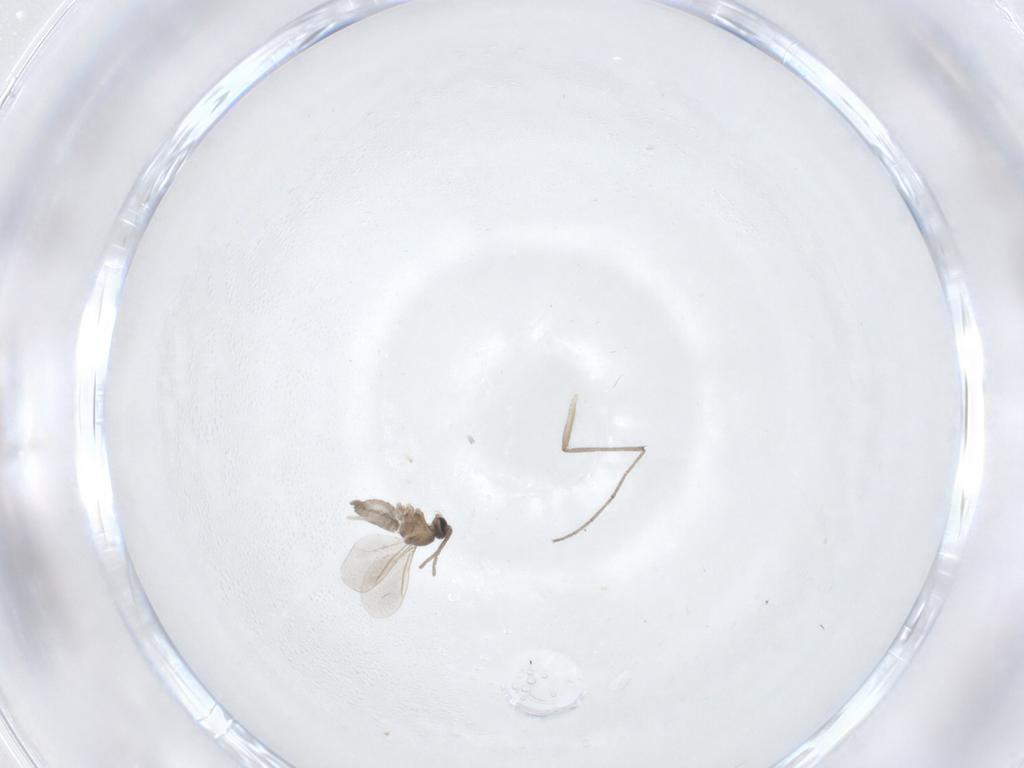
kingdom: Animalia
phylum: Arthropoda
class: Insecta
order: Diptera
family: Cecidomyiidae
